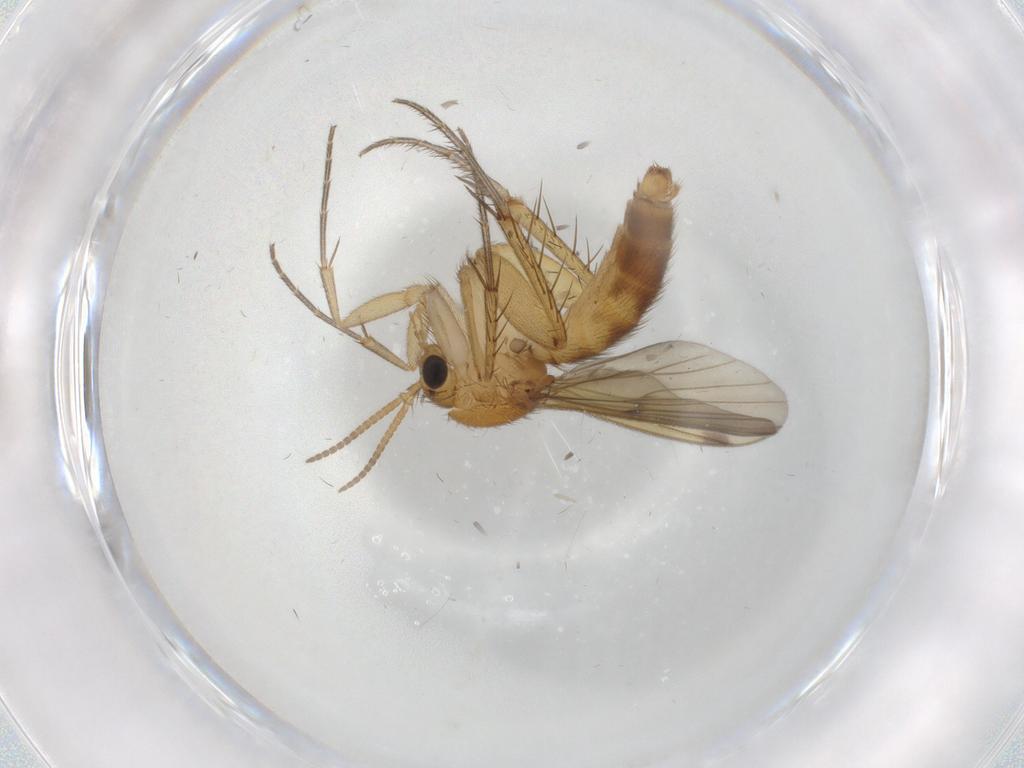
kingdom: Animalia
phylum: Arthropoda
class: Insecta
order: Diptera
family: Mycetophilidae
